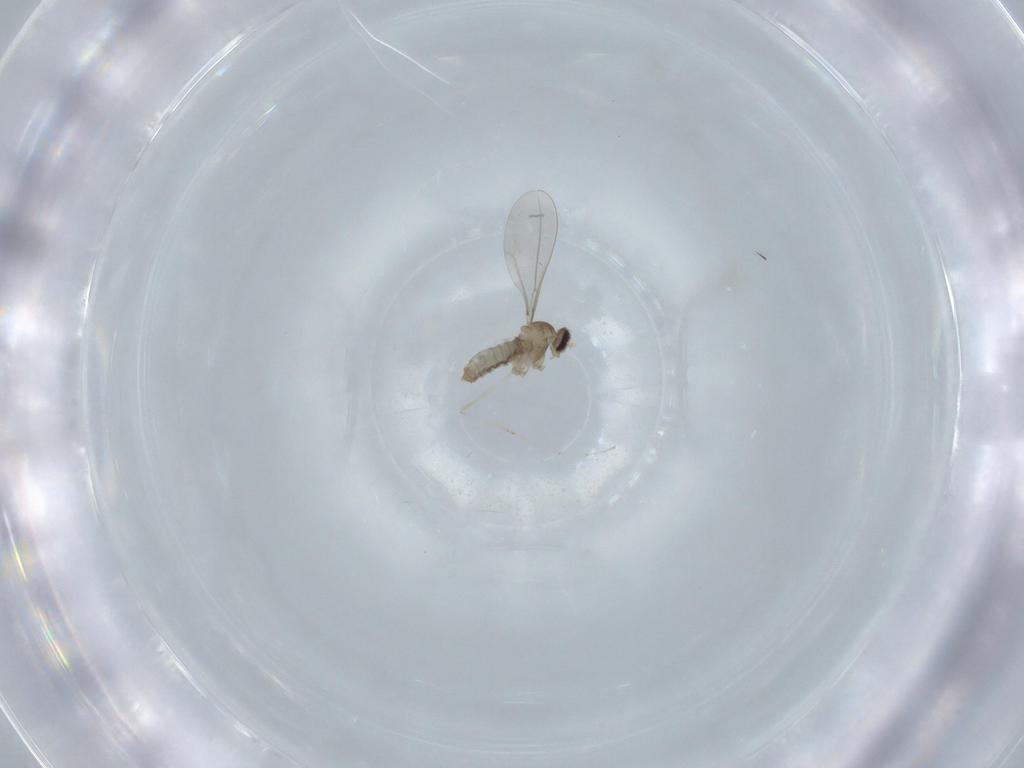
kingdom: Animalia
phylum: Arthropoda
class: Insecta
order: Diptera
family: Cecidomyiidae
